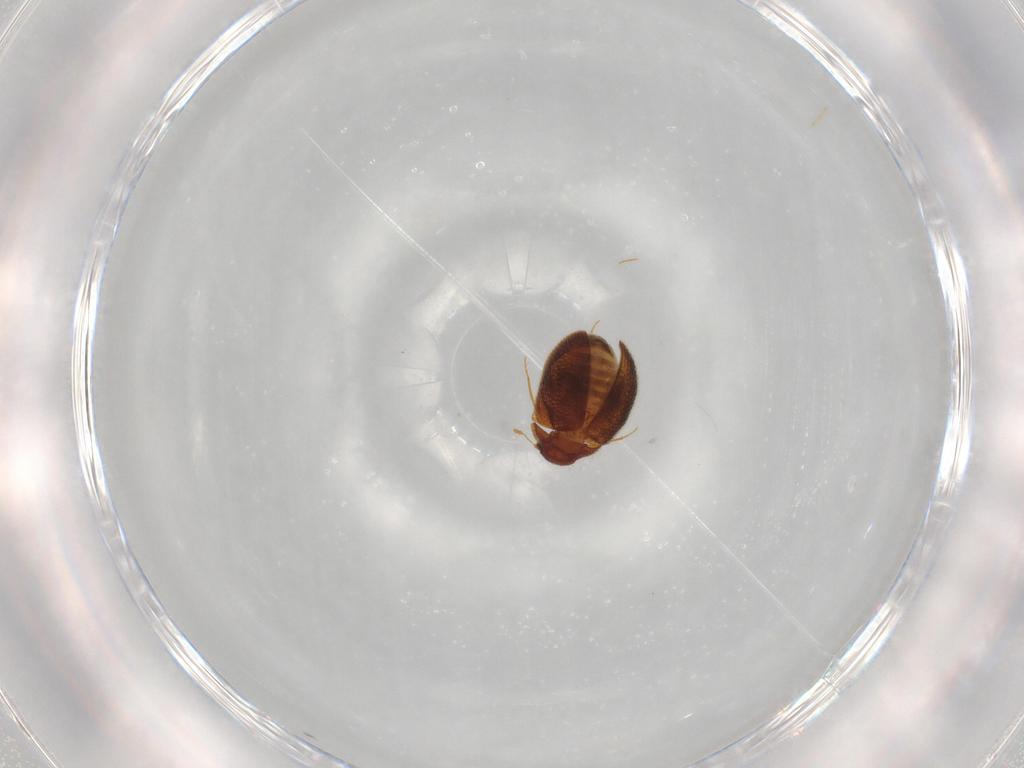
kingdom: Animalia
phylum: Arthropoda
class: Insecta
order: Coleoptera
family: Clambidae
